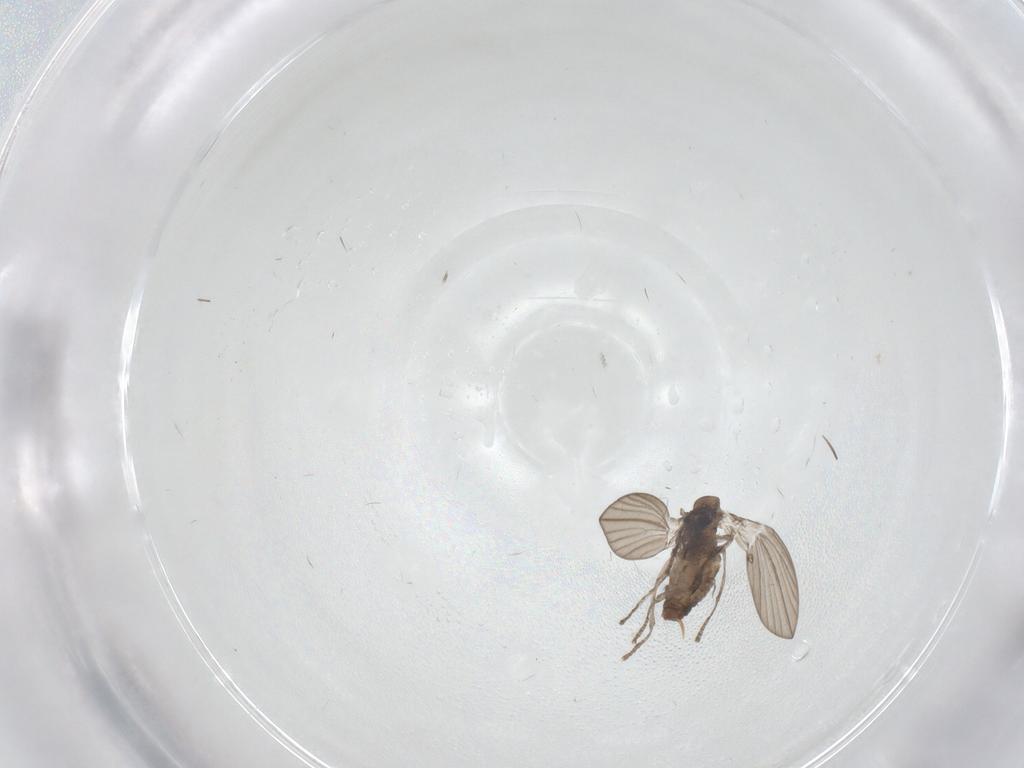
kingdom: Animalia
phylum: Arthropoda
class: Insecta
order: Diptera
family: Psychodidae
